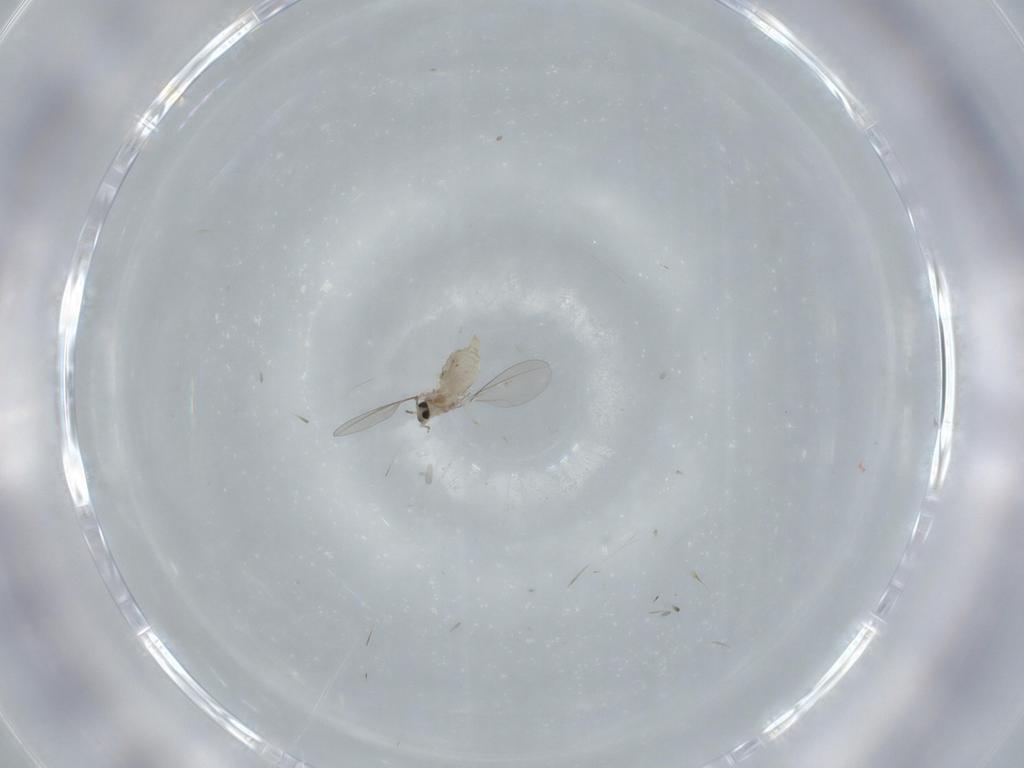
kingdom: Animalia
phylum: Arthropoda
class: Insecta
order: Diptera
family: Cecidomyiidae
